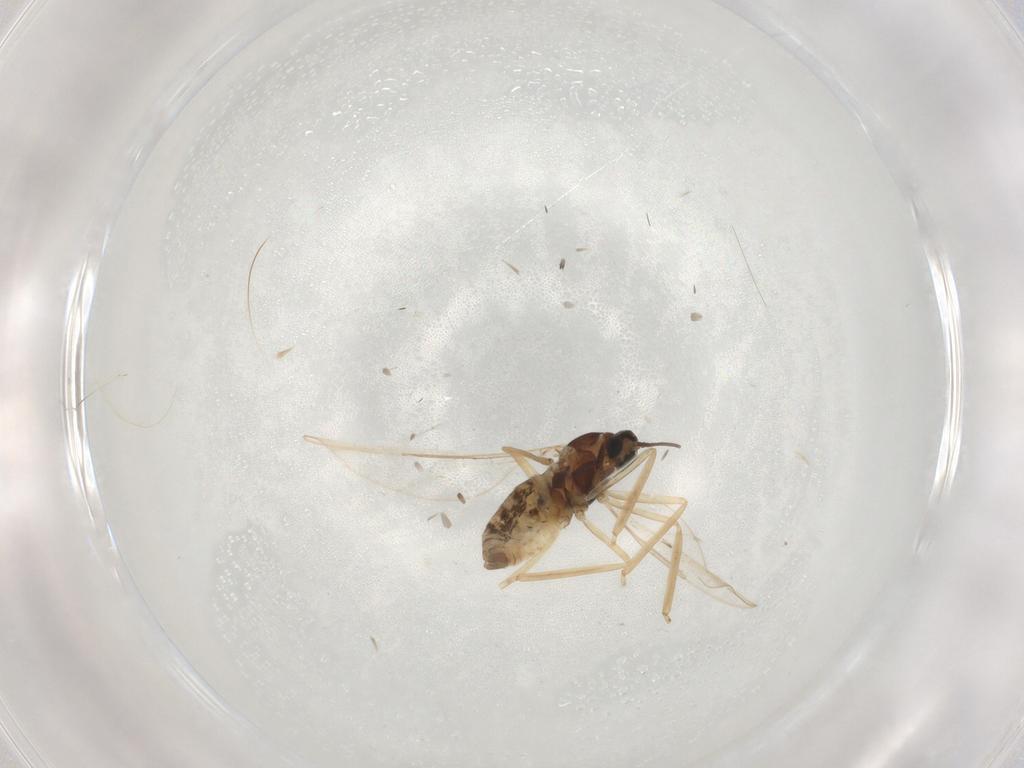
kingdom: Animalia
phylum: Arthropoda
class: Insecta
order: Diptera
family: Cecidomyiidae
